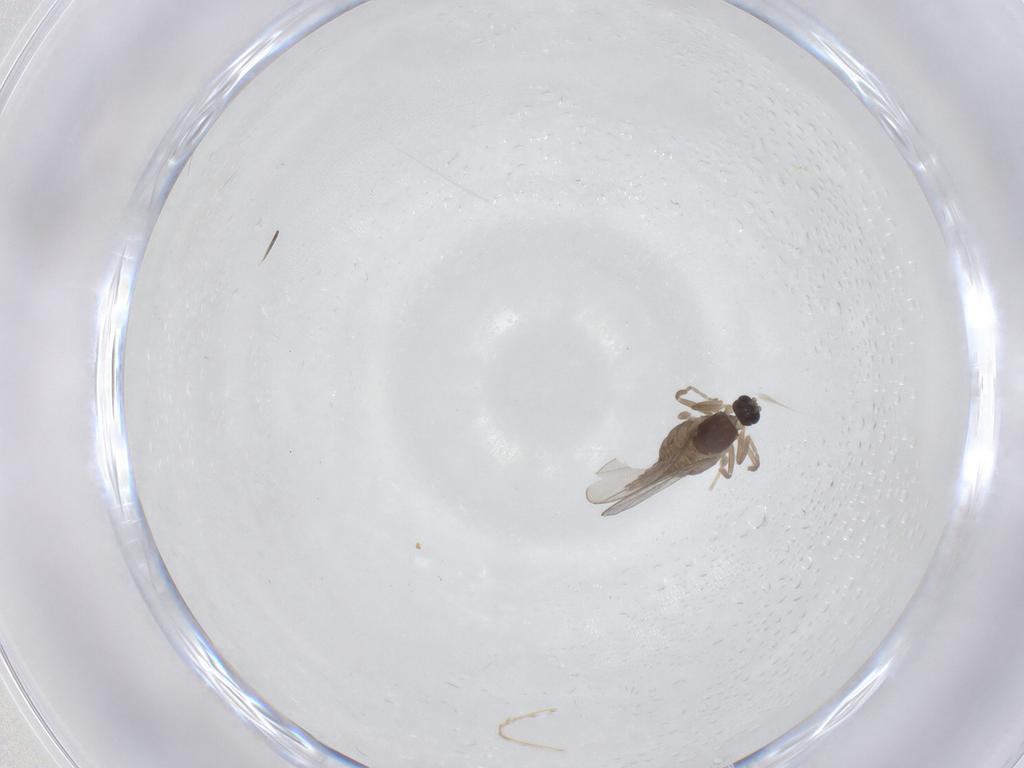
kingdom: Animalia
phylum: Arthropoda
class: Insecta
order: Diptera
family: Cecidomyiidae
